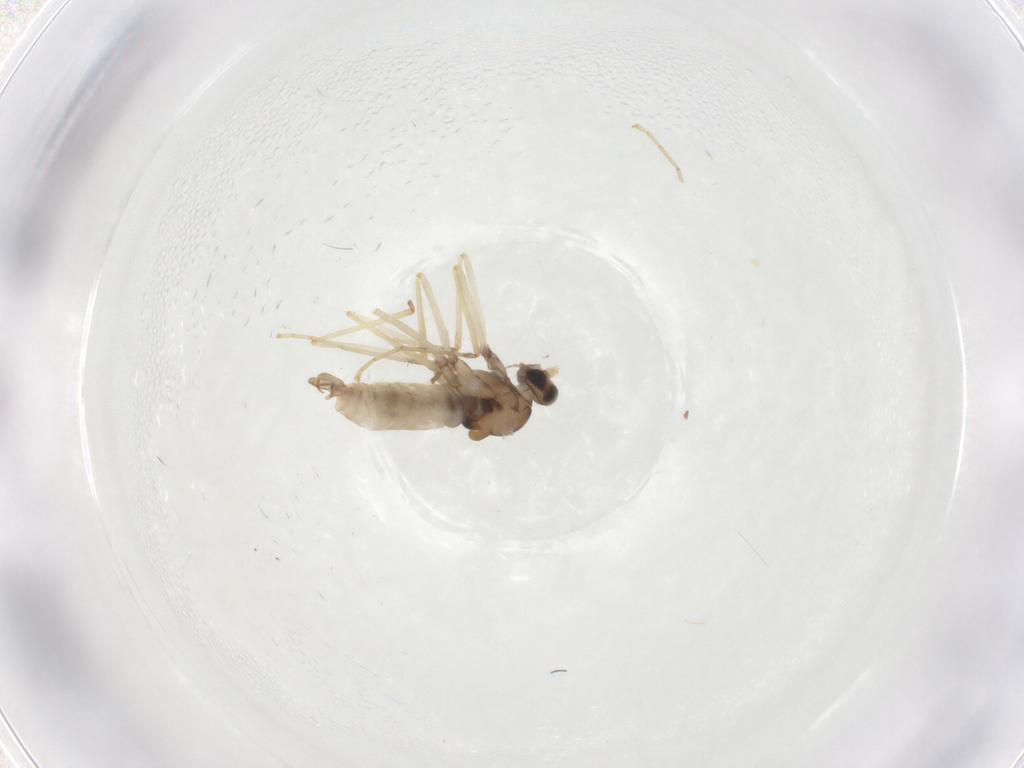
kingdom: Animalia
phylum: Arthropoda
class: Insecta
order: Diptera
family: Cecidomyiidae
